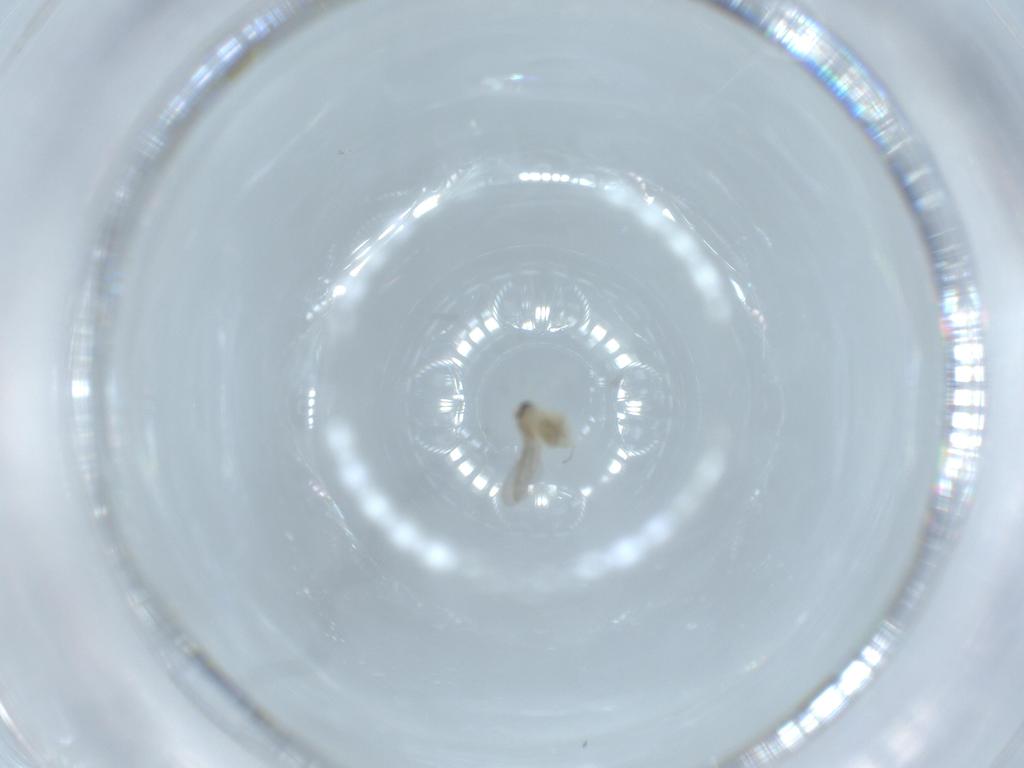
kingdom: Animalia
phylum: Arthropoda
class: Insecta
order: Diptera
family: Cecidomyiidae
